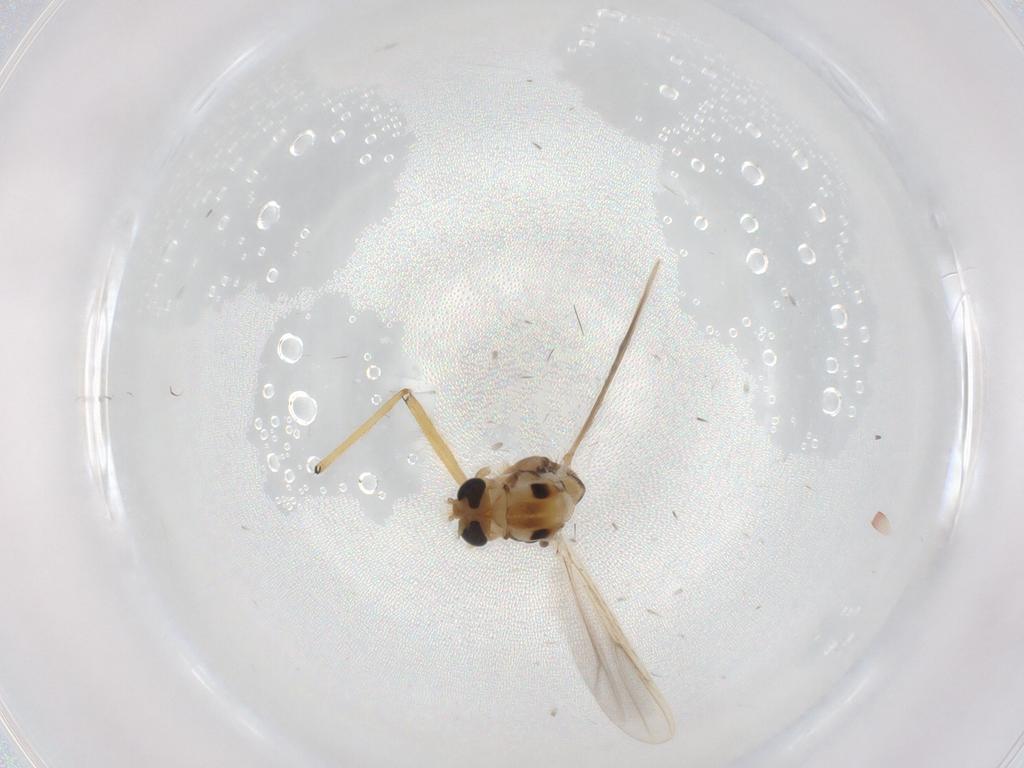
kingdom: Animalia
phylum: Arthropoda
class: Insecta
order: Diptera
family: Chironomidae
